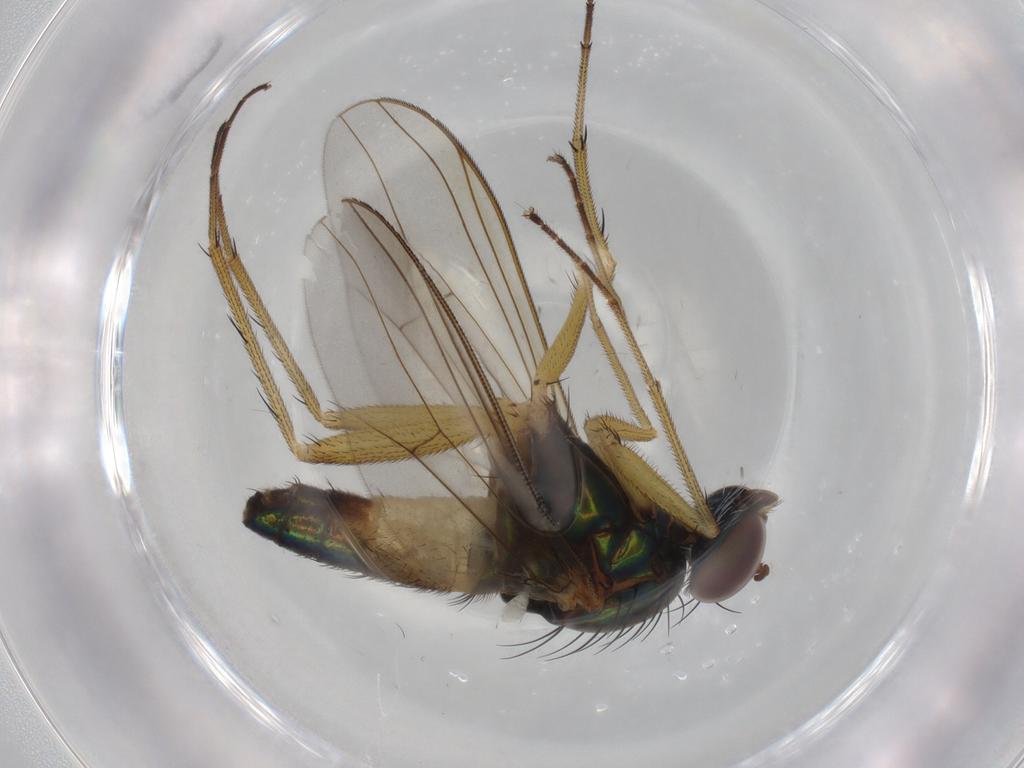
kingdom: Animalia
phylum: Arthropoda
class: Insecta
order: Diptera
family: Dolichopodidae
